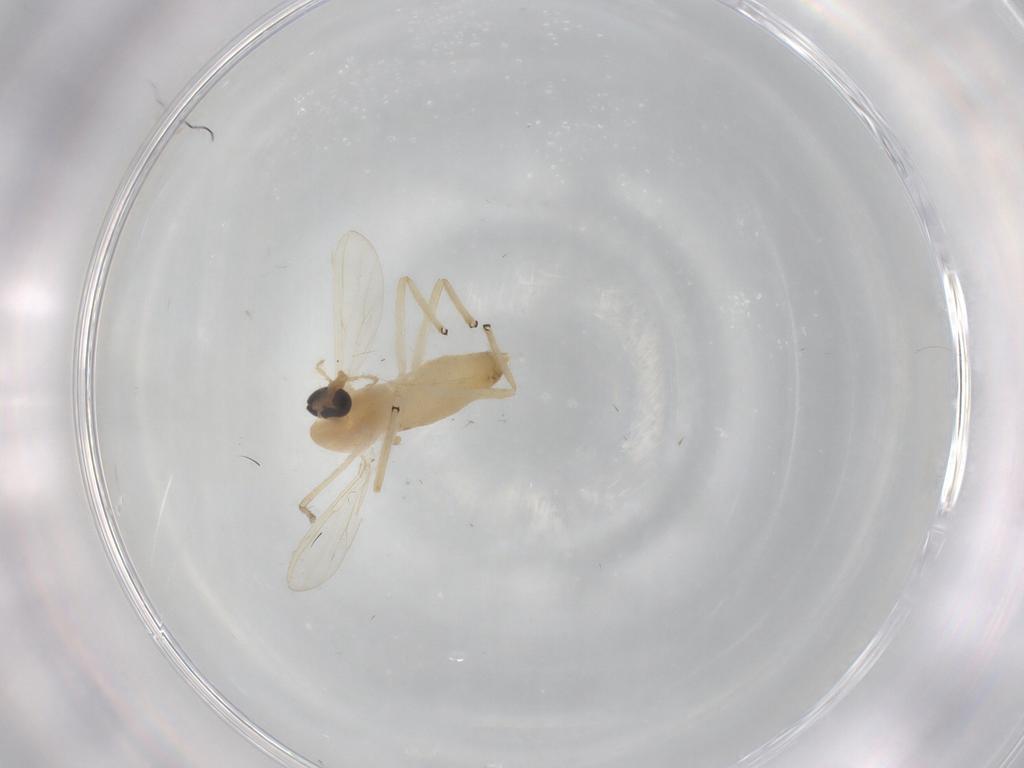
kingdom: Animalia
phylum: Arthropoda
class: Insecta
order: Diptera
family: Chironomidae
